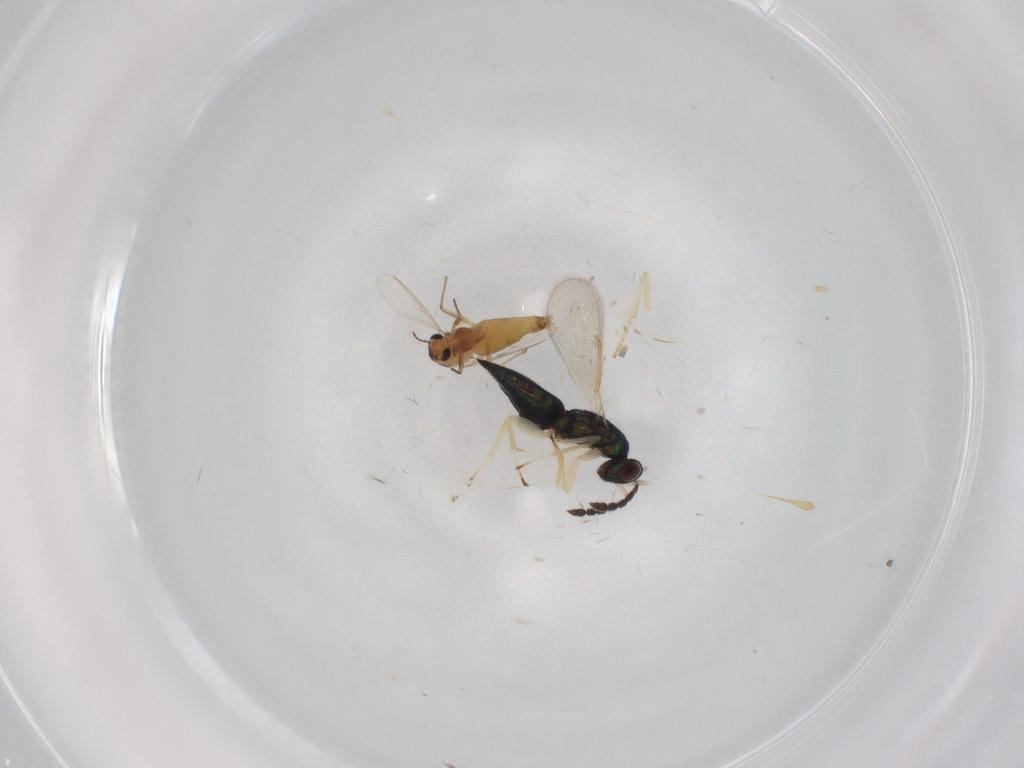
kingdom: Animalia
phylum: Arthropoda
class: Insecta
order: Diptera
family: Chironomidae
